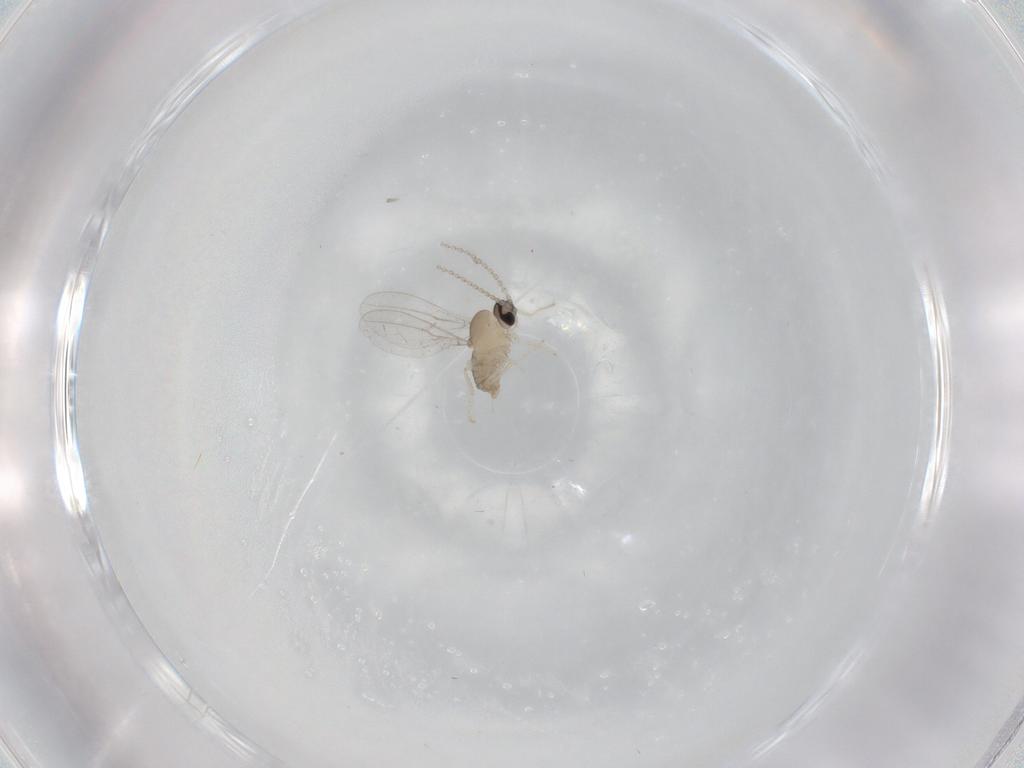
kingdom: Animalia
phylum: Arthropoda
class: Insecta
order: Diptera
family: Cecidomyiidae
